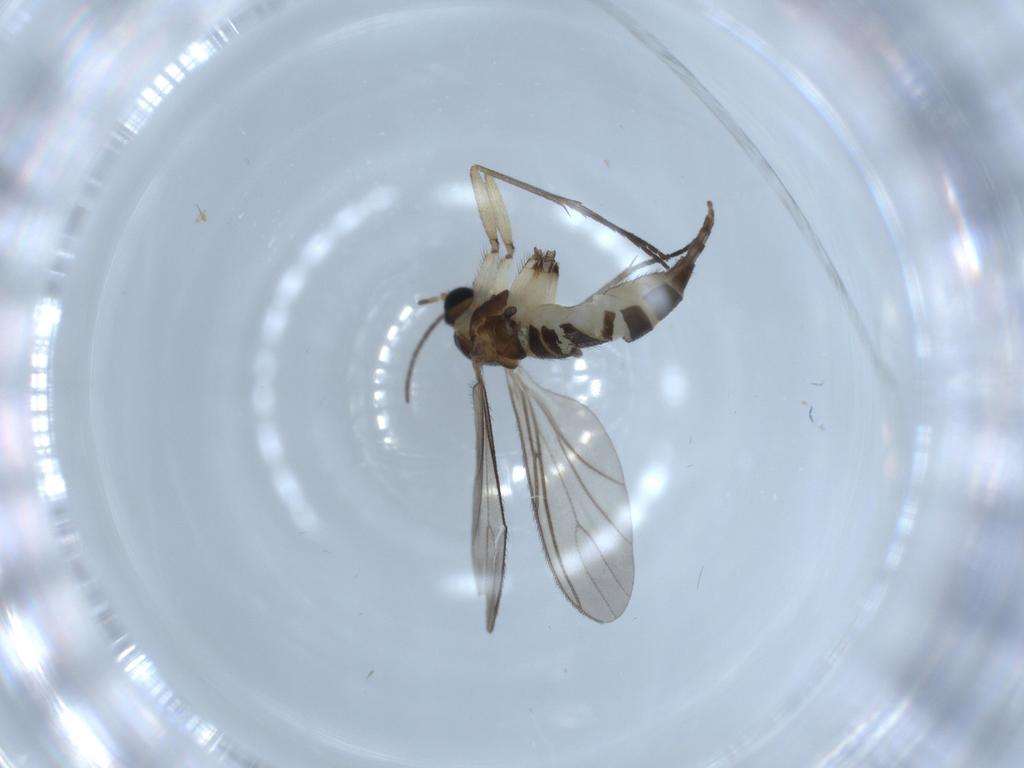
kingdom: Animalia
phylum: Arthropoda
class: Insecta
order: Diptera
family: Sciaridae
